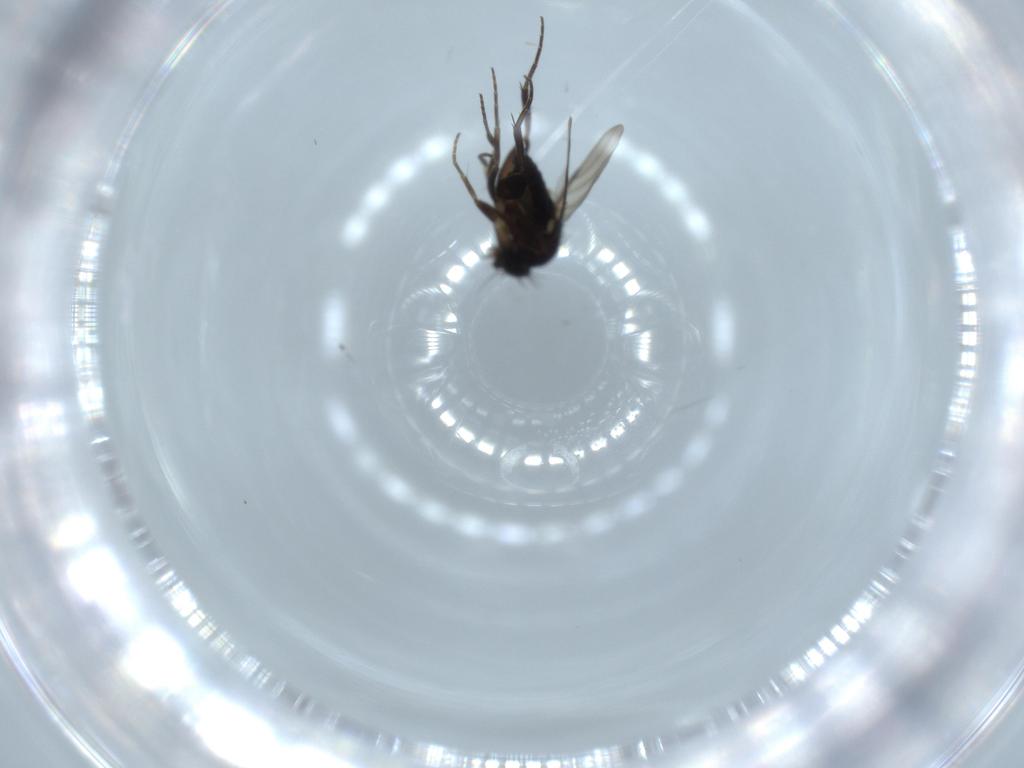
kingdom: Animalia
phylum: Arthropoda
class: Insecta
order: Diptera
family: Phoridae
